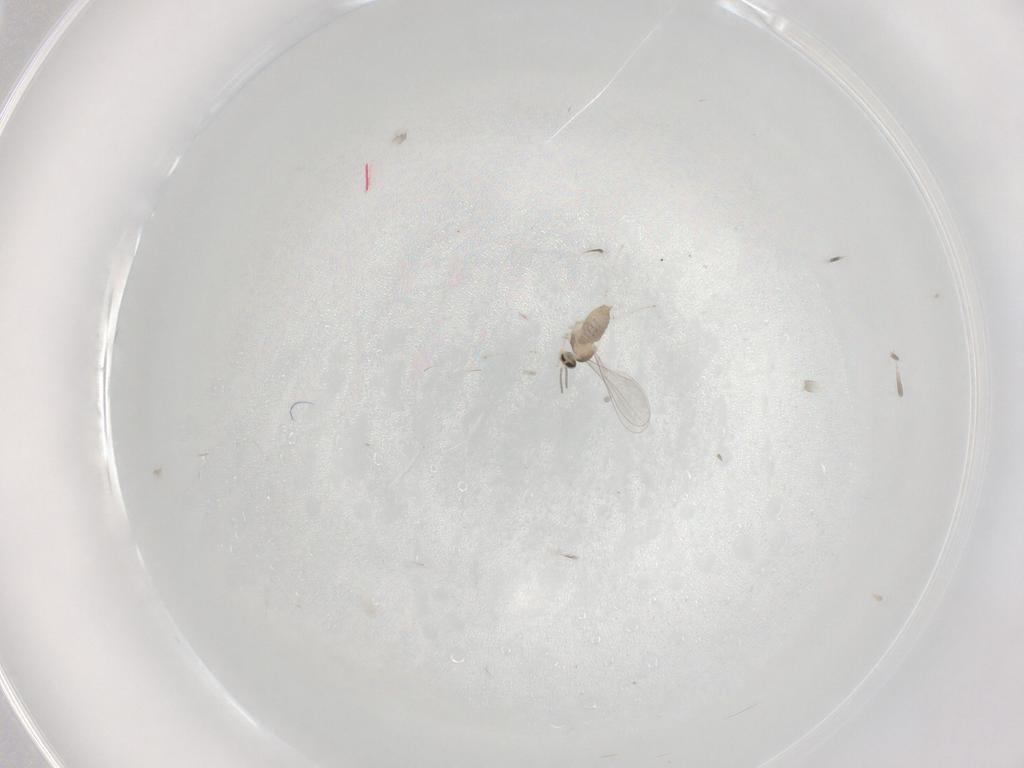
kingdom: Animalia
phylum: Arthropoda
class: Insecta
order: Diptera
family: Cecidomyiidae
